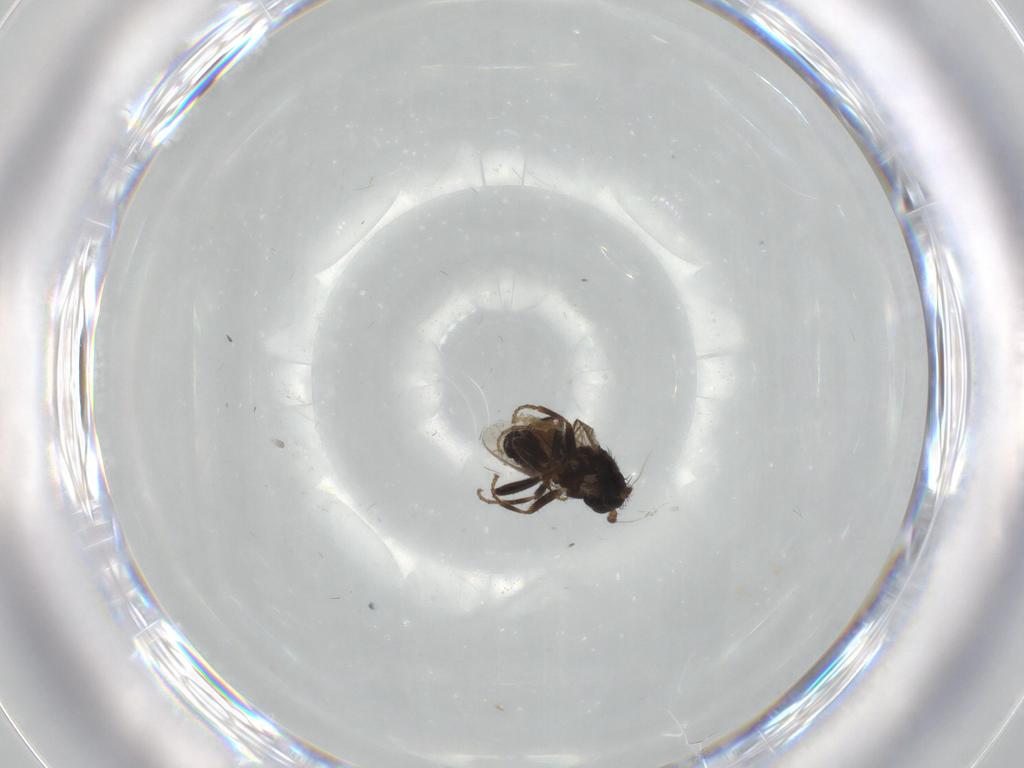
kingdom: Animalia
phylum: Arthropoda
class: Insecta
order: Diptera
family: Sphaeroceridae
